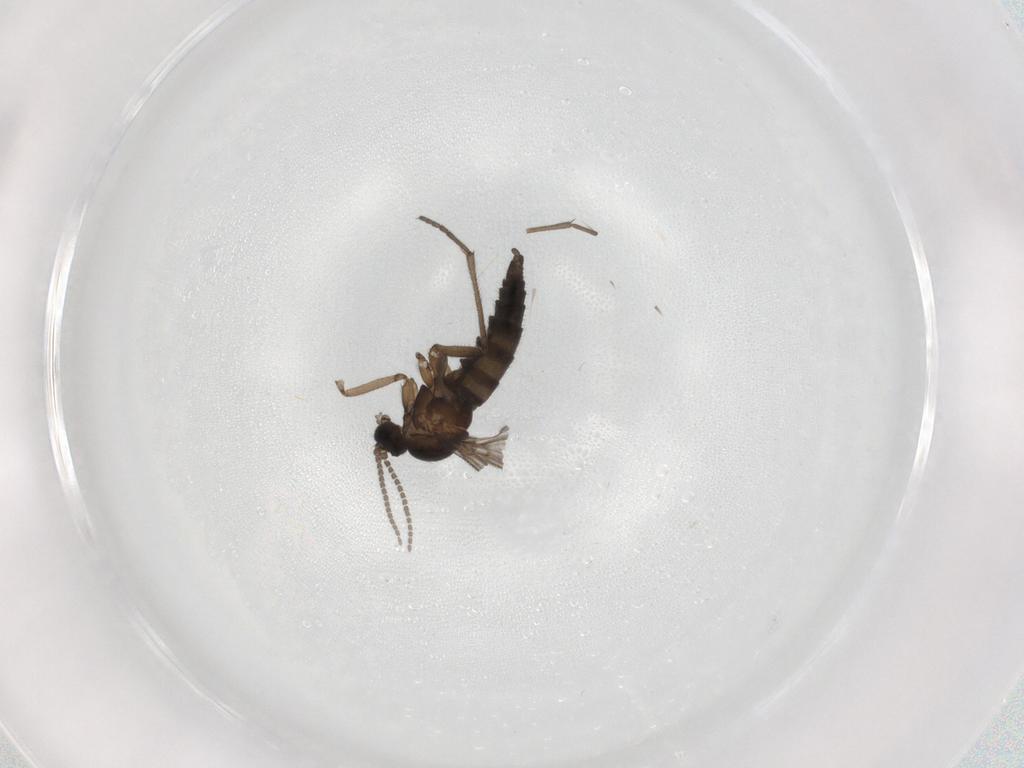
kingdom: Animalia
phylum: Arthropoda
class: Insecta
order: Diptera
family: Sciaridae
